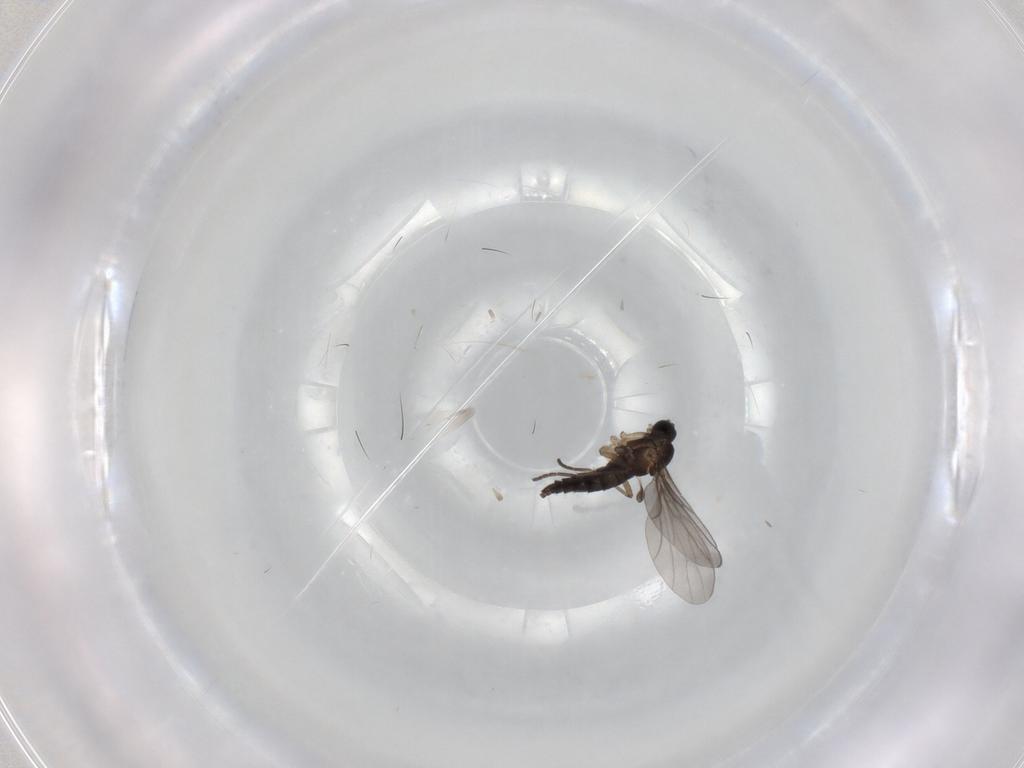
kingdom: Animalia
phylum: Arthropoda
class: Insecta
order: Diptera
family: Sciaridae
